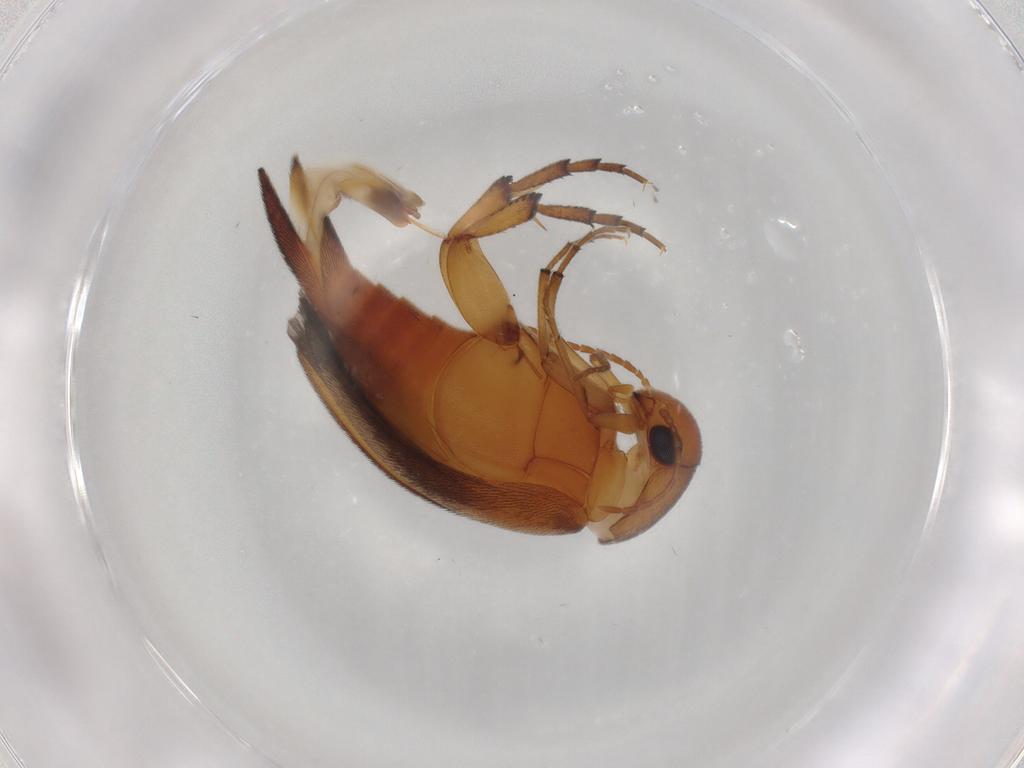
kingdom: Animalia
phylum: Arthropoda
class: Insecta
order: Coleoptera
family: Mordellidae
